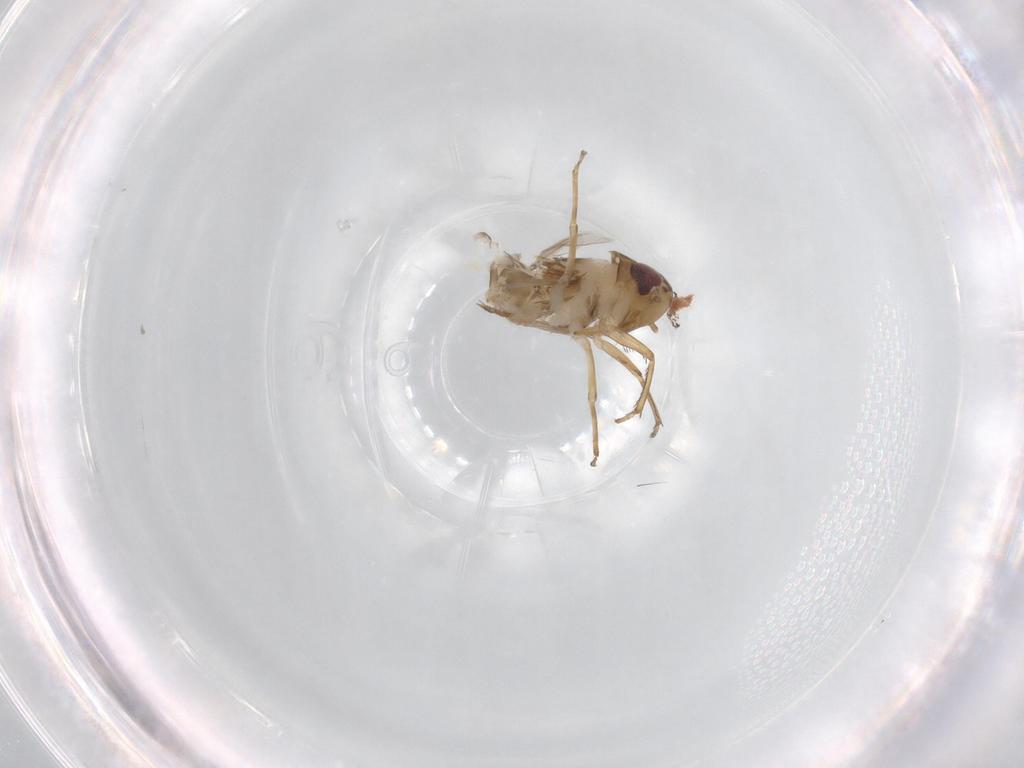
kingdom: Animalia
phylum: Arthropoda
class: Insecta
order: Hemiptera
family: Cicadellidae
